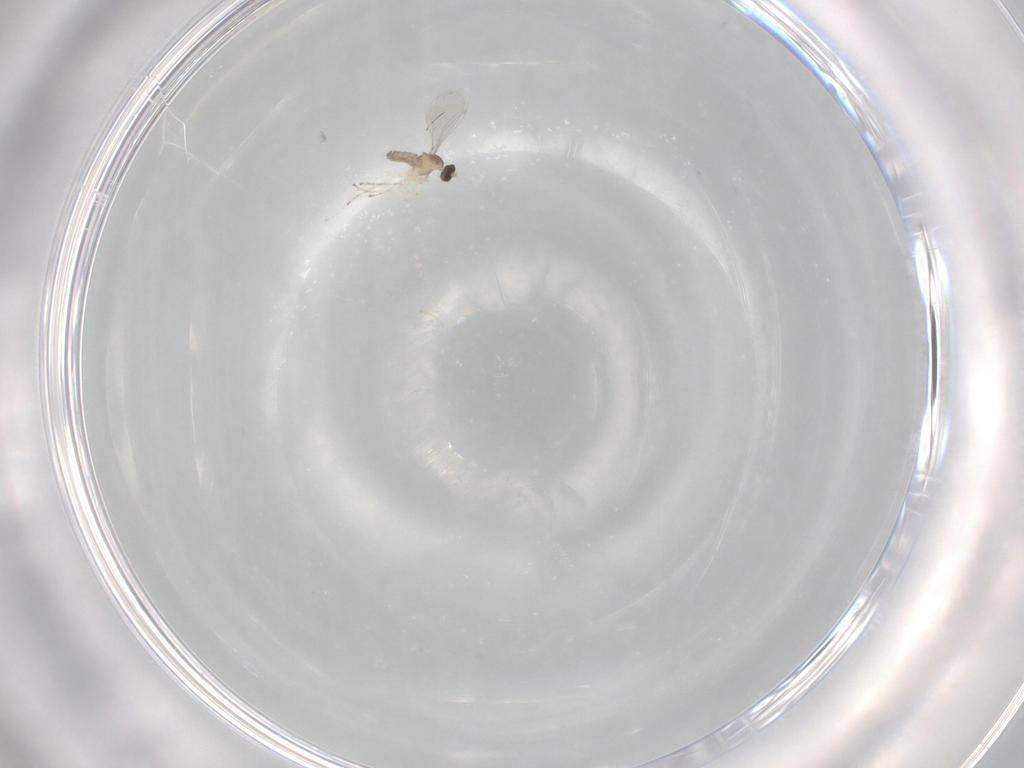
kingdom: Animalia
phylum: Arthropoda
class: Insecta
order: Diptera
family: Cecidomyiidae
